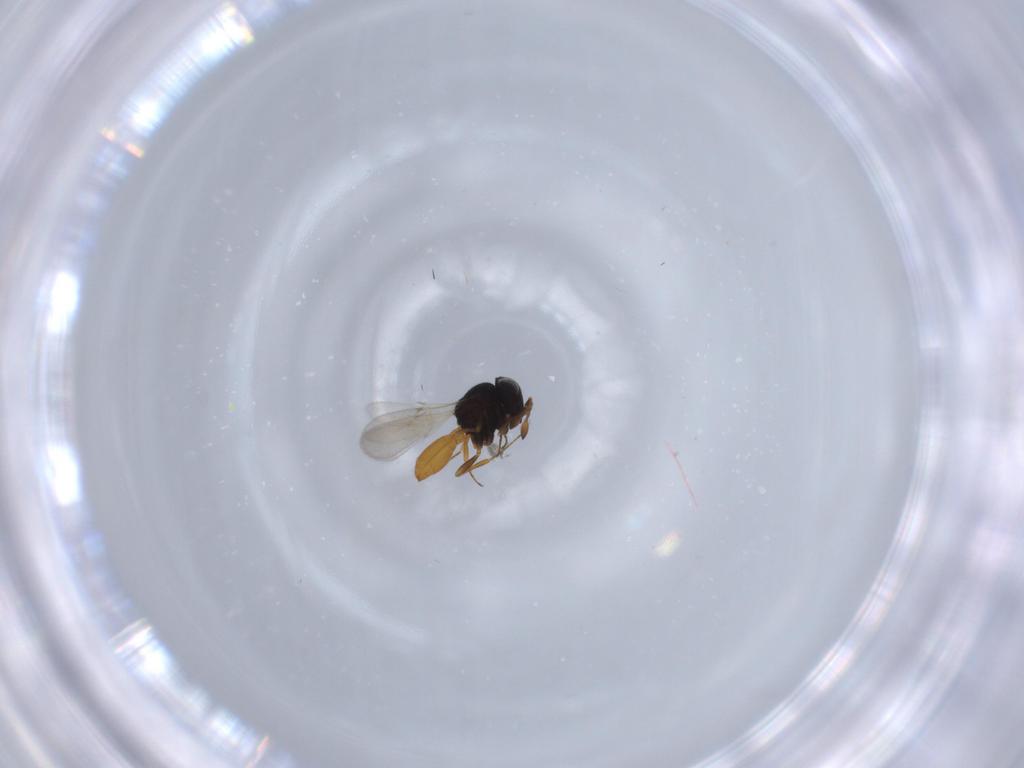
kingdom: Animalia
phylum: Arthropoda
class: Insecta
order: Hymenoptera
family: Scelionidae
